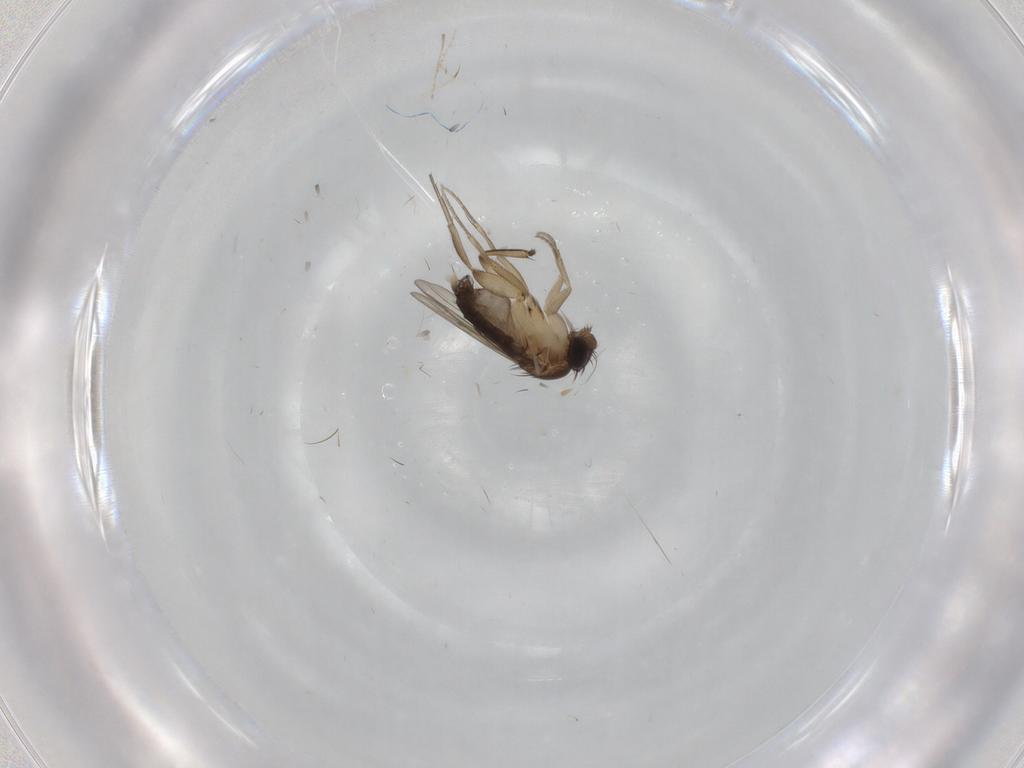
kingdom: Animalia
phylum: Arthropoda
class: Insecta
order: Diptera
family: Phoridae
